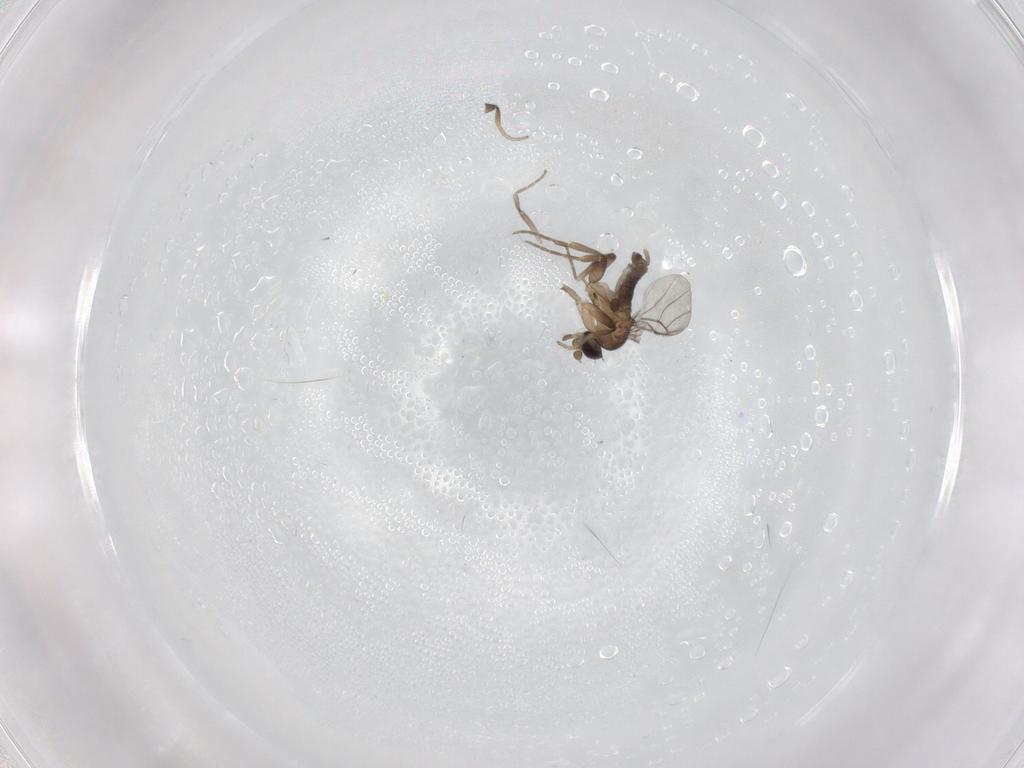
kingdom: Animalia
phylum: Arthropoda
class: Insecta
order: Diptera
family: Phoridae
